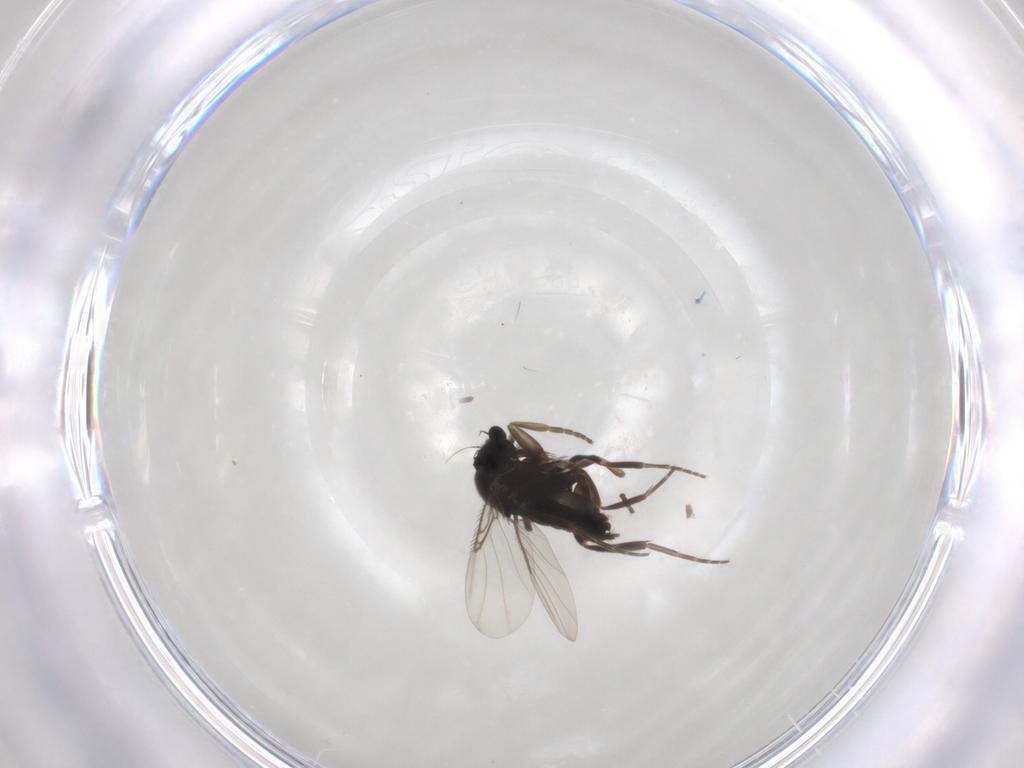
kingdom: Animalia
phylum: Arthropoda
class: Insecta
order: Diptera
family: Phoridae
